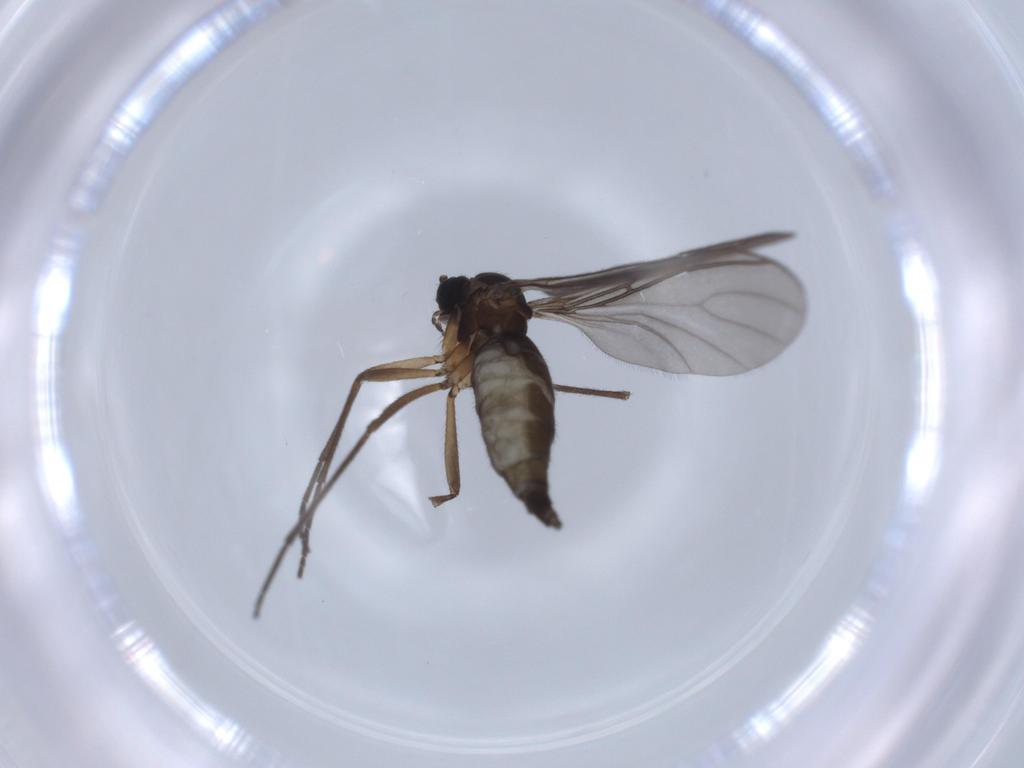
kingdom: Animalia
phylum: Arthropoda
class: Insecta
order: Diptera
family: Sciaridae
